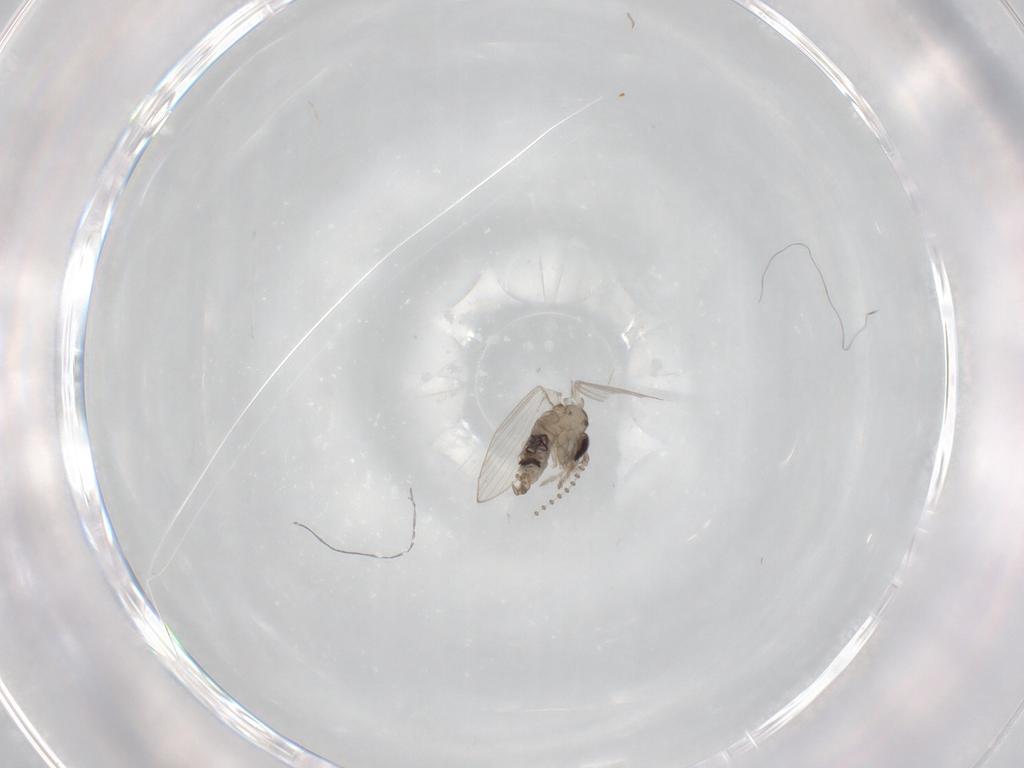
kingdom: Animalia
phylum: Arthropoda
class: Insecta
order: Diptera
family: Psychodidae
